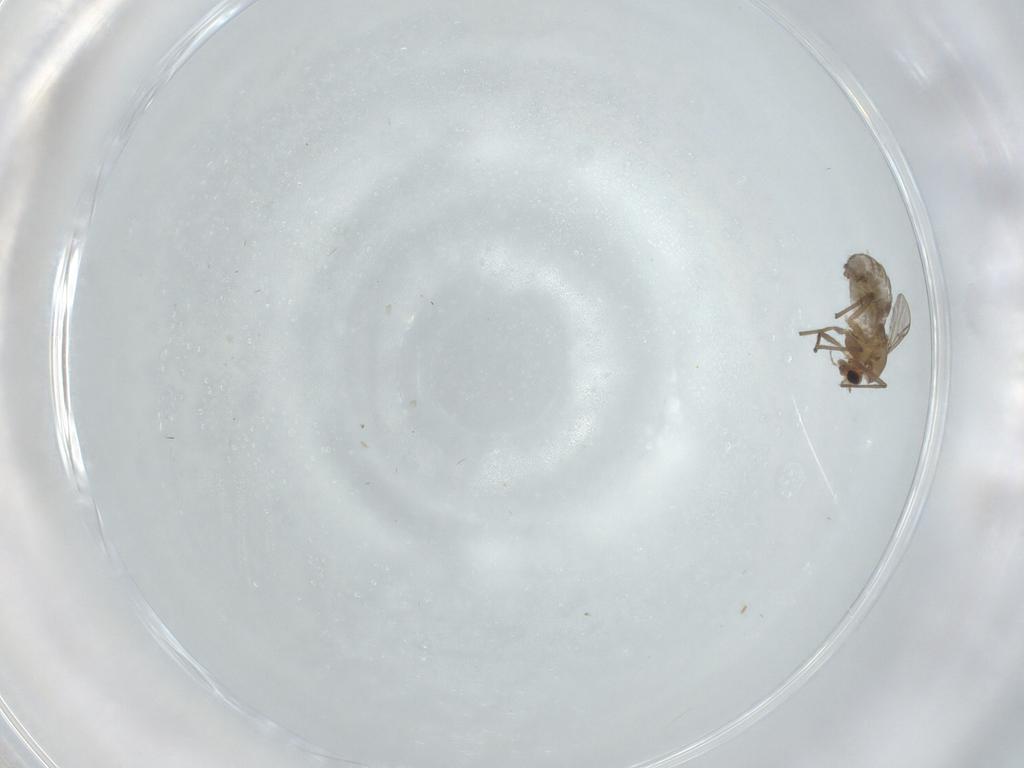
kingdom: Animalia
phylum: Arthropoda
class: Insecta
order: Diptera
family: Chironomidae
